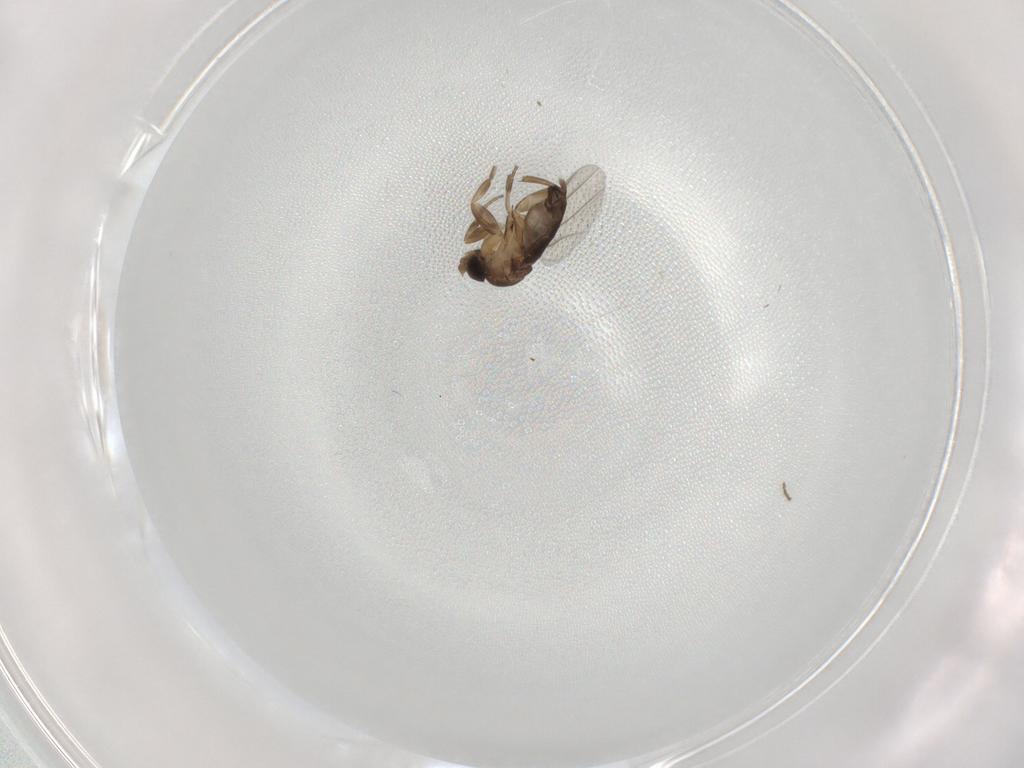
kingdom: Animalia
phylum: Arthropoda
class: Insecta
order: Diptera
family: Phoridae
